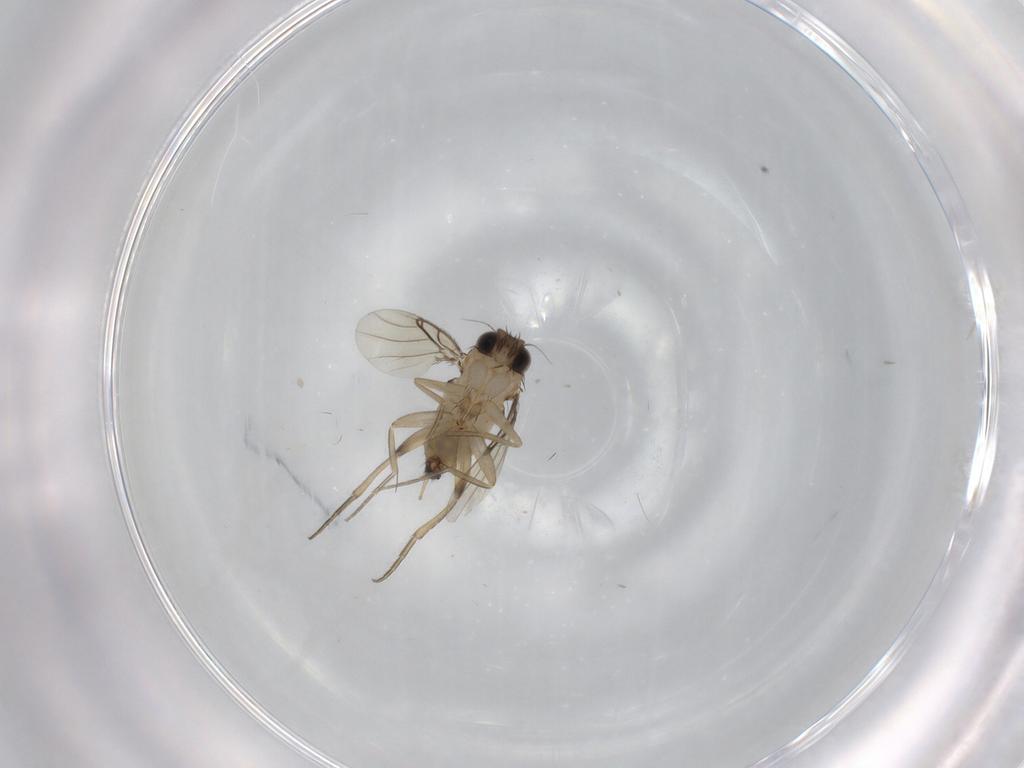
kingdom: Animalia
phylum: Arthropoda
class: Insecta
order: Diptera
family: Phoridae
